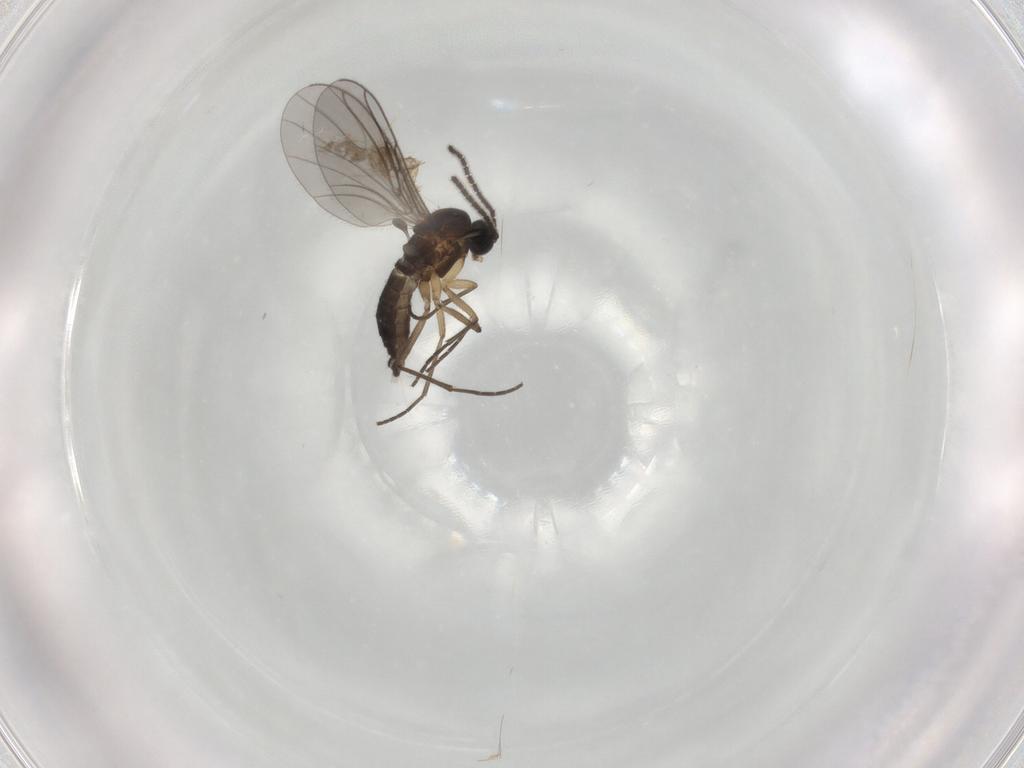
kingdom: Animalia
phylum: Arthropoda
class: Insecta
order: Diptera
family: Sciaridae
